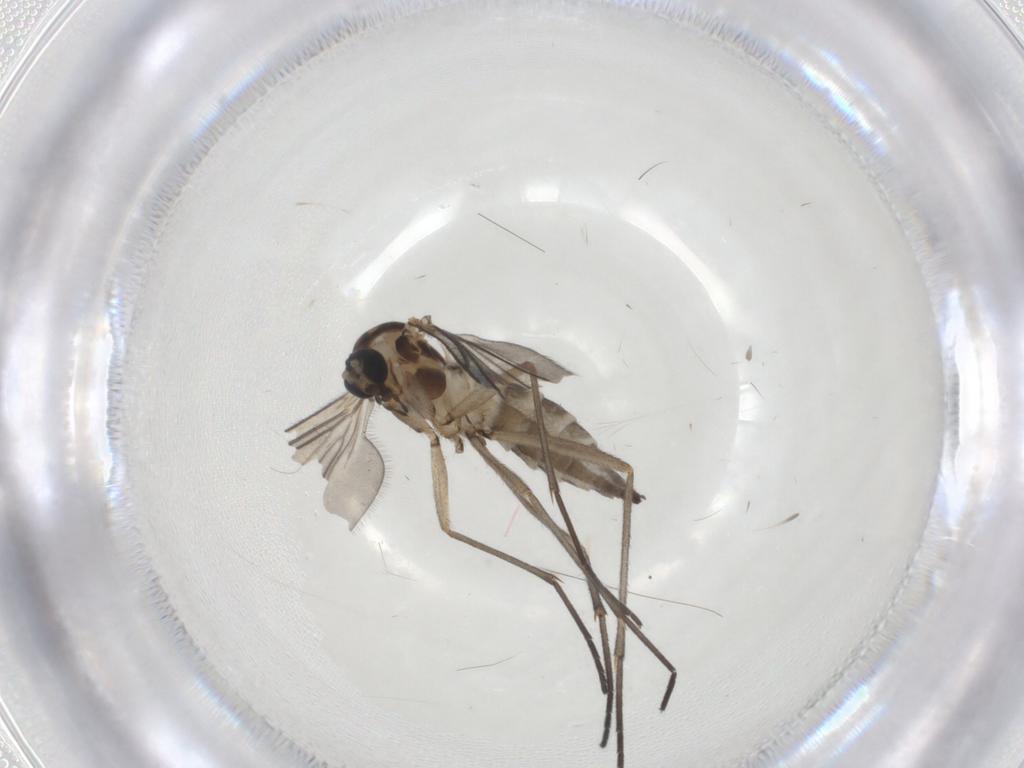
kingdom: Animalia
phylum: Arthropoda
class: Insecta
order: Diptera
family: Sciaridae
